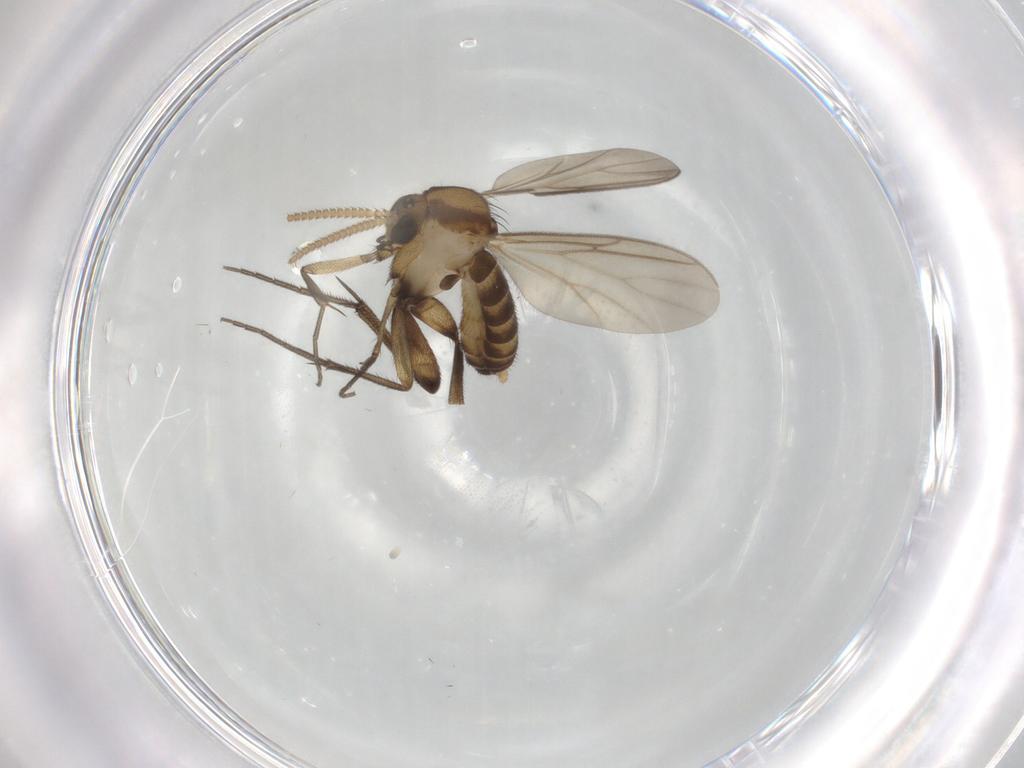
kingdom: Animalia
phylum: Arthropoda
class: Insecta
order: Diptera
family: Mycetophilidae
